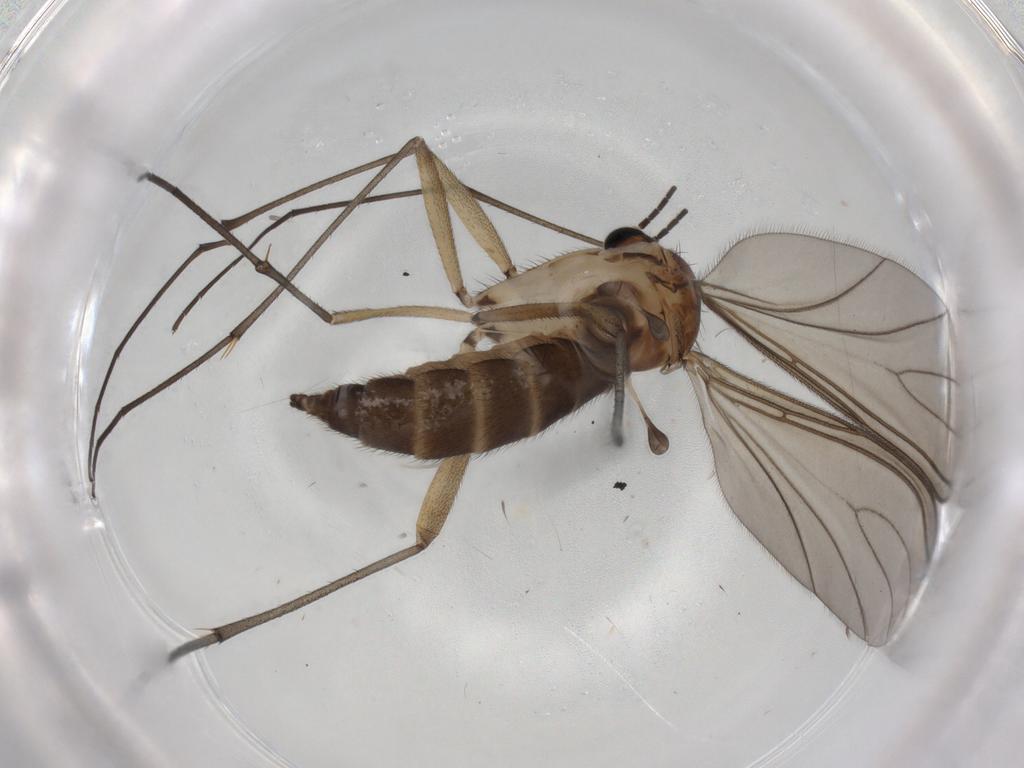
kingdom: Animalia
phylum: Arthropoda
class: Insecta
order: Diptera
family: Sciaridae
